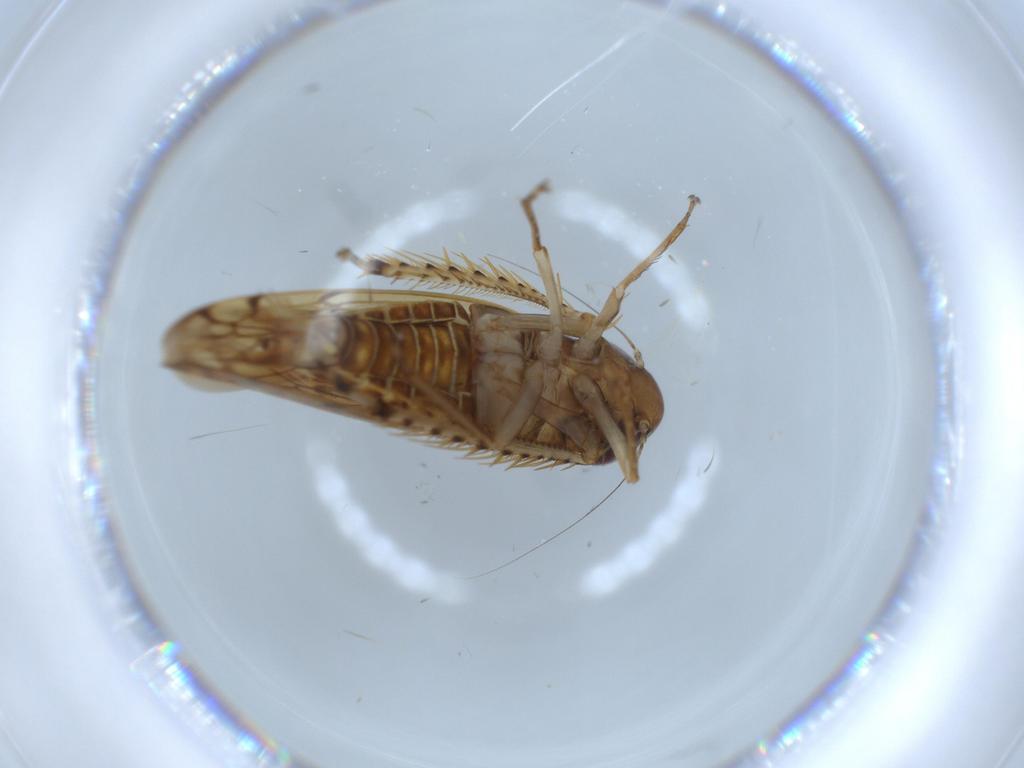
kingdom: Animalia
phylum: Arthropoda
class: Insecta
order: Hemiptera
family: Cicadellidae
